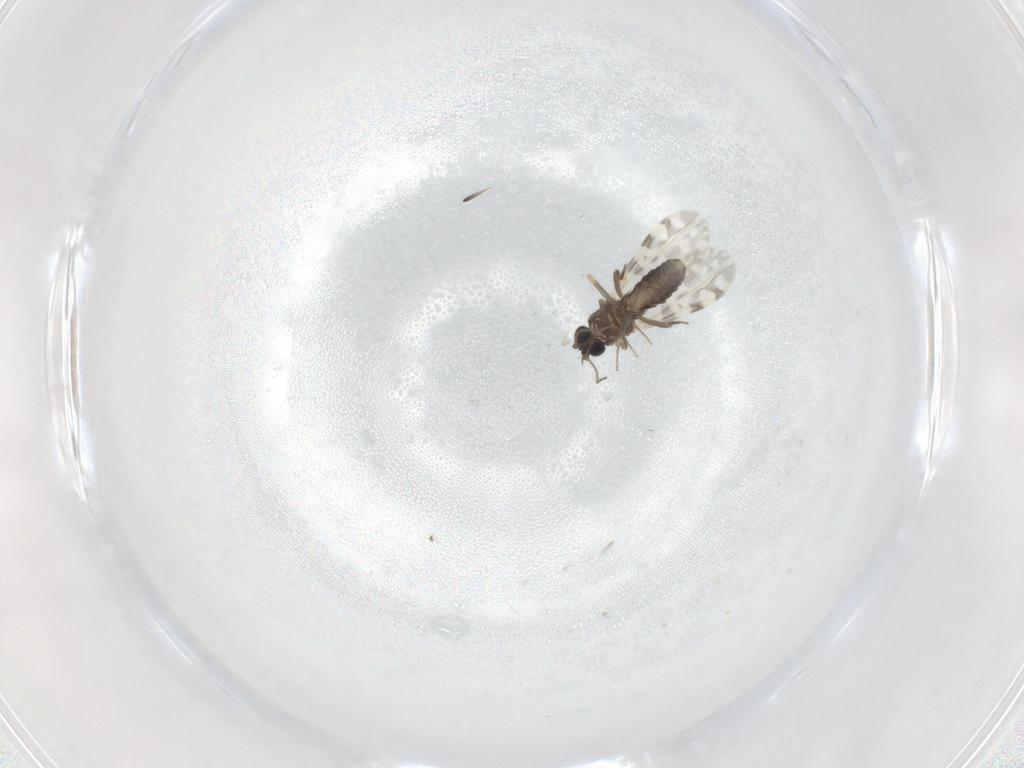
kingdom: Animalia
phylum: Arthropoda
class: Insecta
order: Diptera
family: Ceratopogonidae
